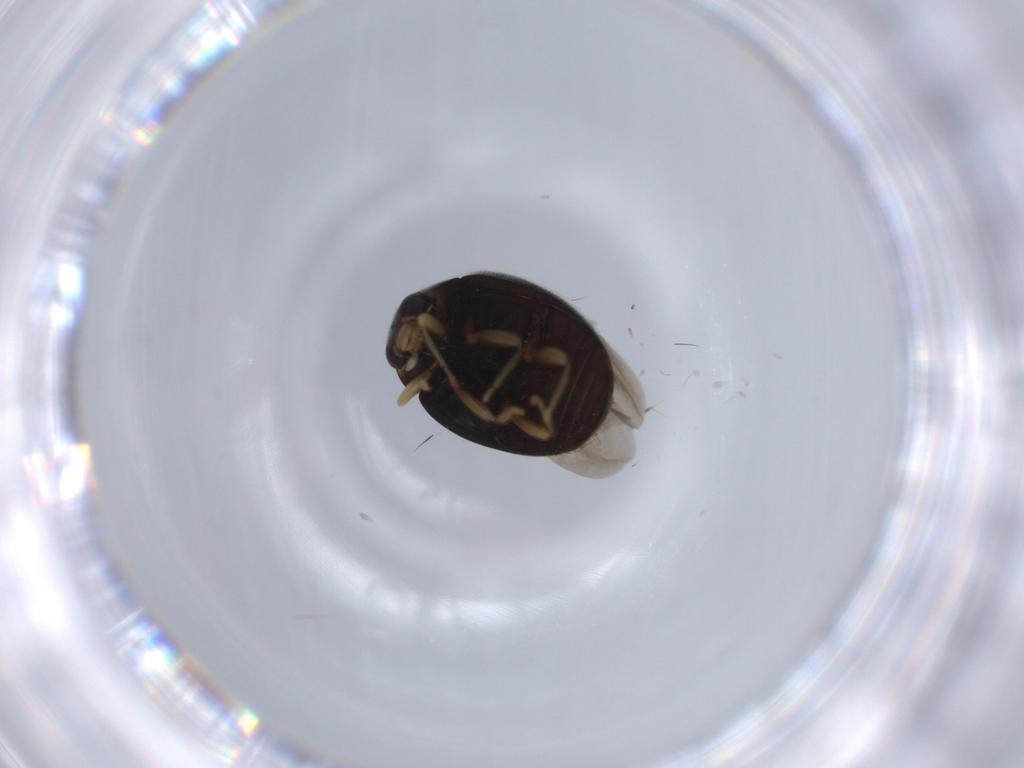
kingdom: Animalia
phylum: Arthropoda
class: Insecta
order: Coleoptera
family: Coccinellidae
